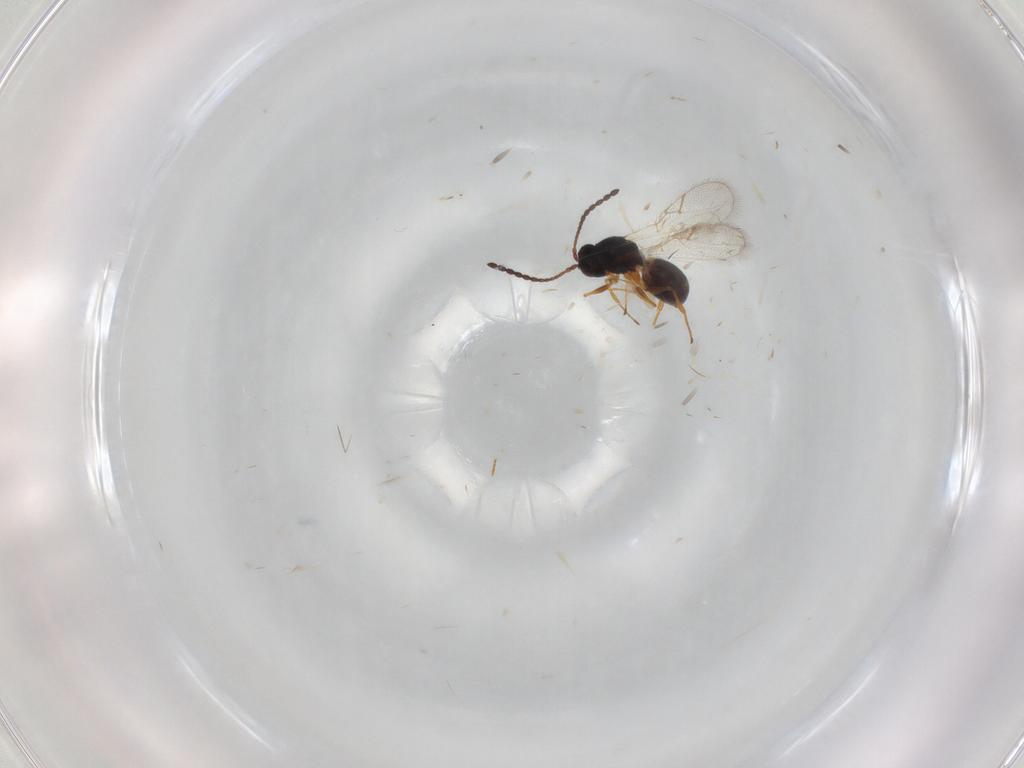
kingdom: Animalia
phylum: Arthropoda
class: Insecta
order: Hymenoptera
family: Figitidae
